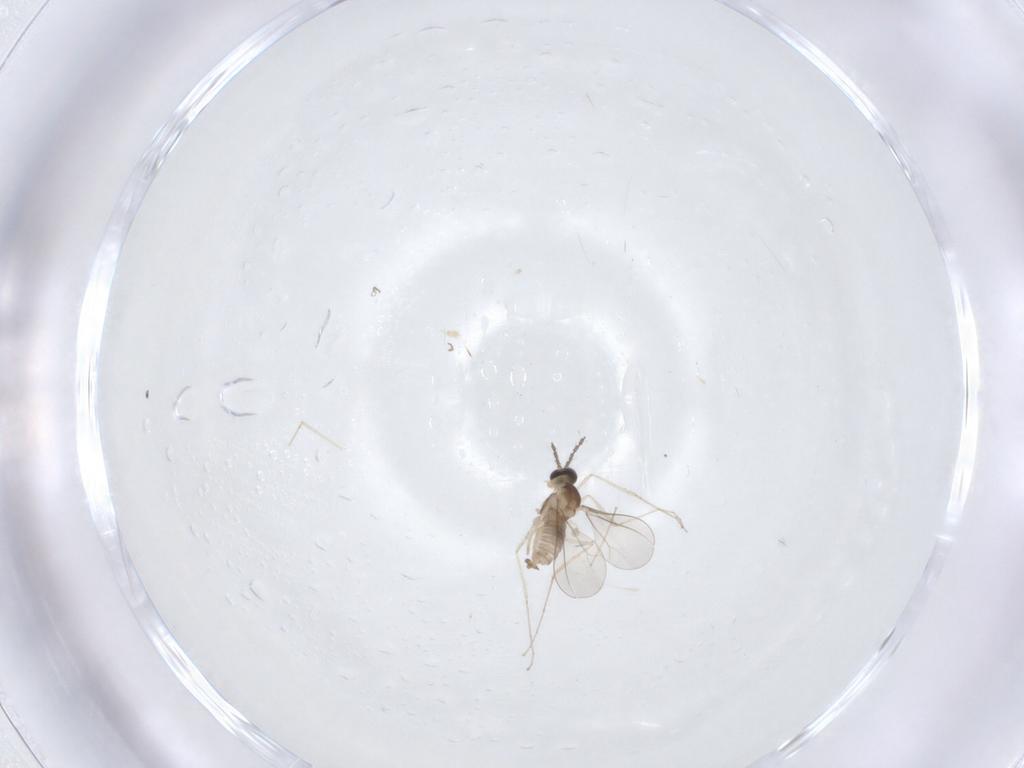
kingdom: Animalia
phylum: Arthropoda
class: Insecta
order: Diptera
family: Cecidomyiidae
